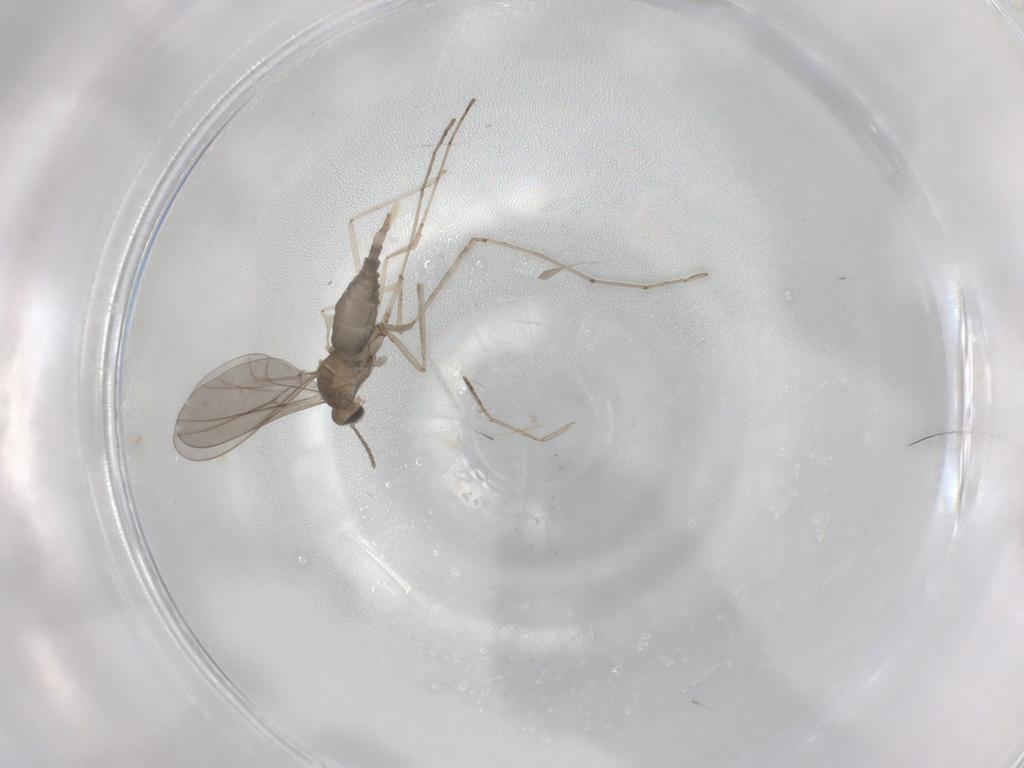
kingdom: Animalia
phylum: Arthropoda
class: Insecta
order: Diptera
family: Cecidomyiidae
